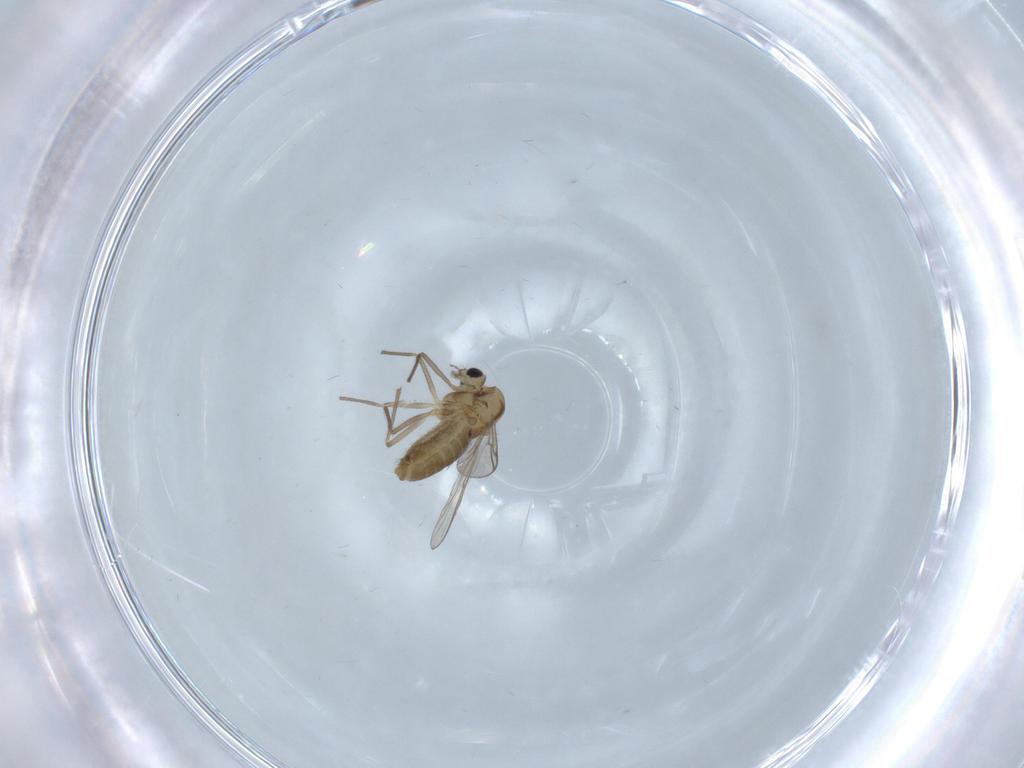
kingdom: Animalia
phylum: Arthropoda
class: Insecta
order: Diptera
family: Chironomidae
